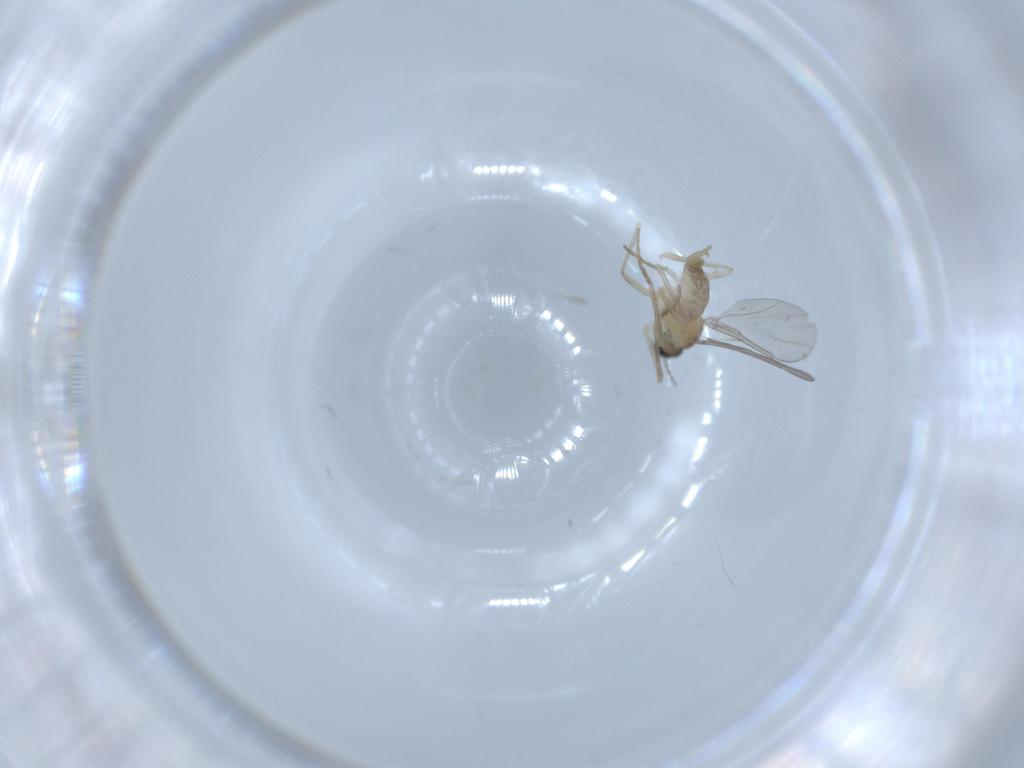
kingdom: Animalia
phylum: Arthropoda
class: Insecta
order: Diptera
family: Cecidomyiidae
